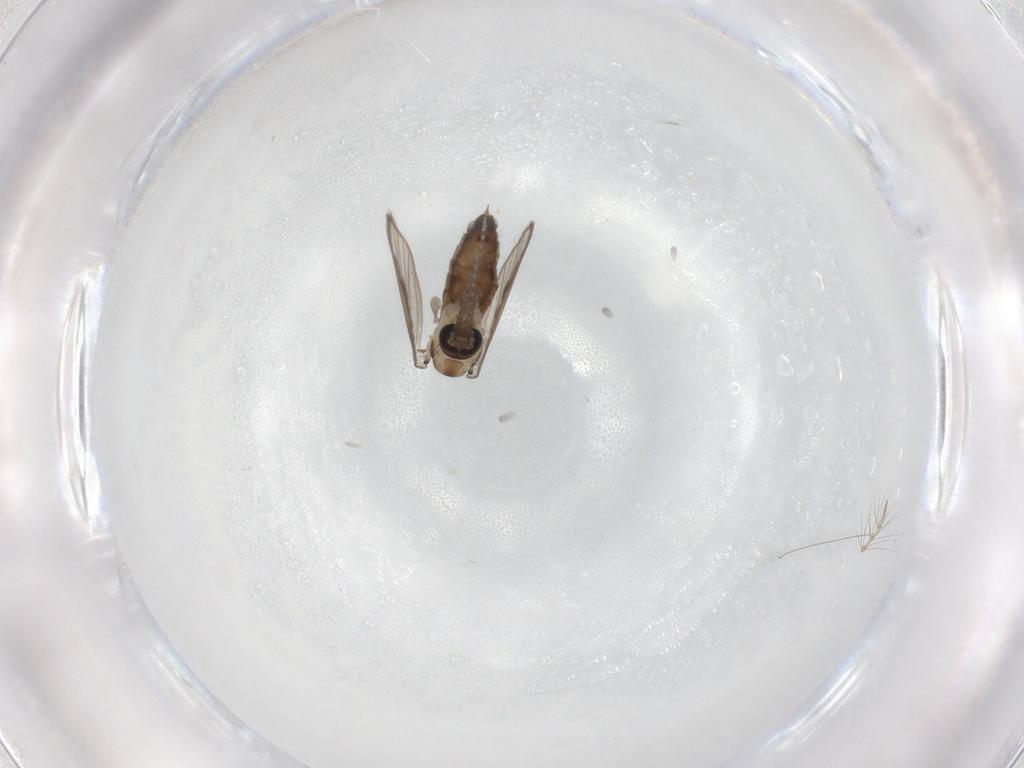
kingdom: Animalia
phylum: Arthropoda
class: Insecta
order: Diptera
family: Psychodidae
